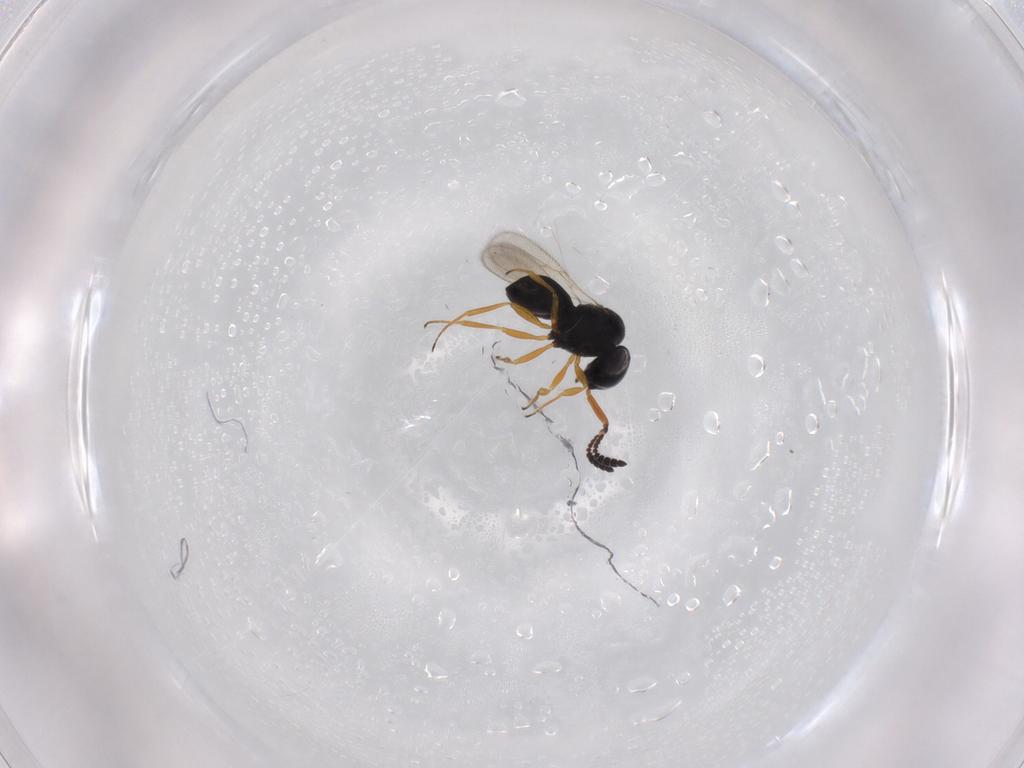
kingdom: Animalia
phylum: Arthropoda
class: Insecta
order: Hymenoptera
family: Scelionidae
